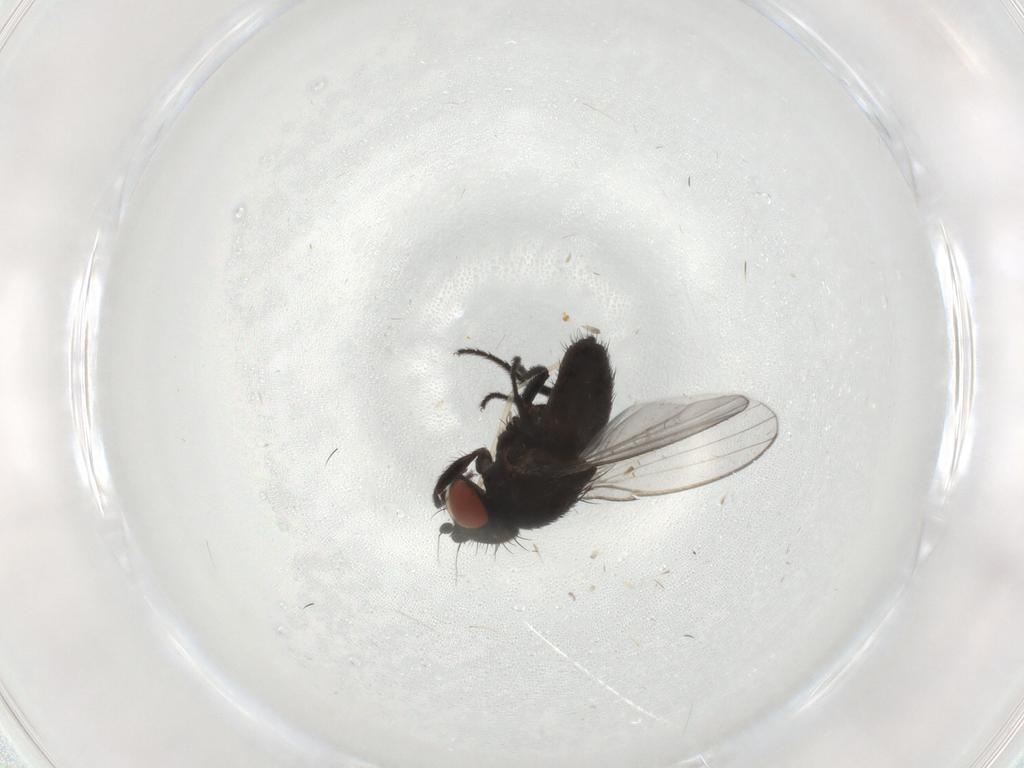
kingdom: Animalia
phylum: Arthropoda
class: Insecta
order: Diptera
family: Milichiidae
